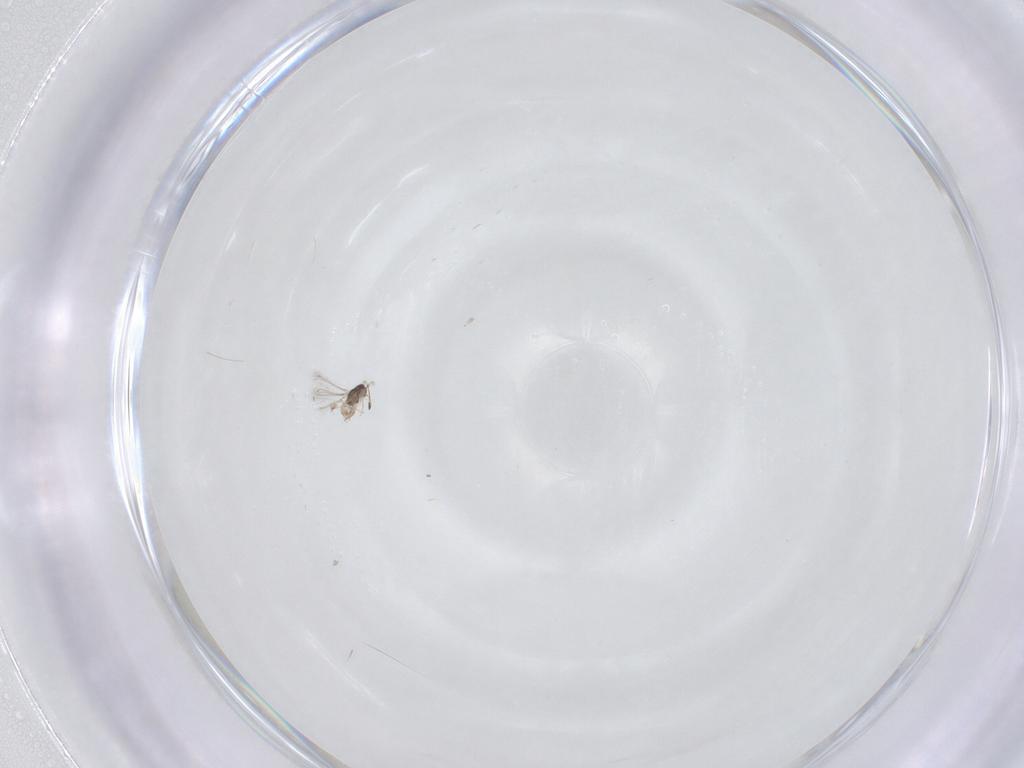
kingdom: Animalia
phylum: Arthropoda
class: Insecta
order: Hymenoptera
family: Mymaridae
